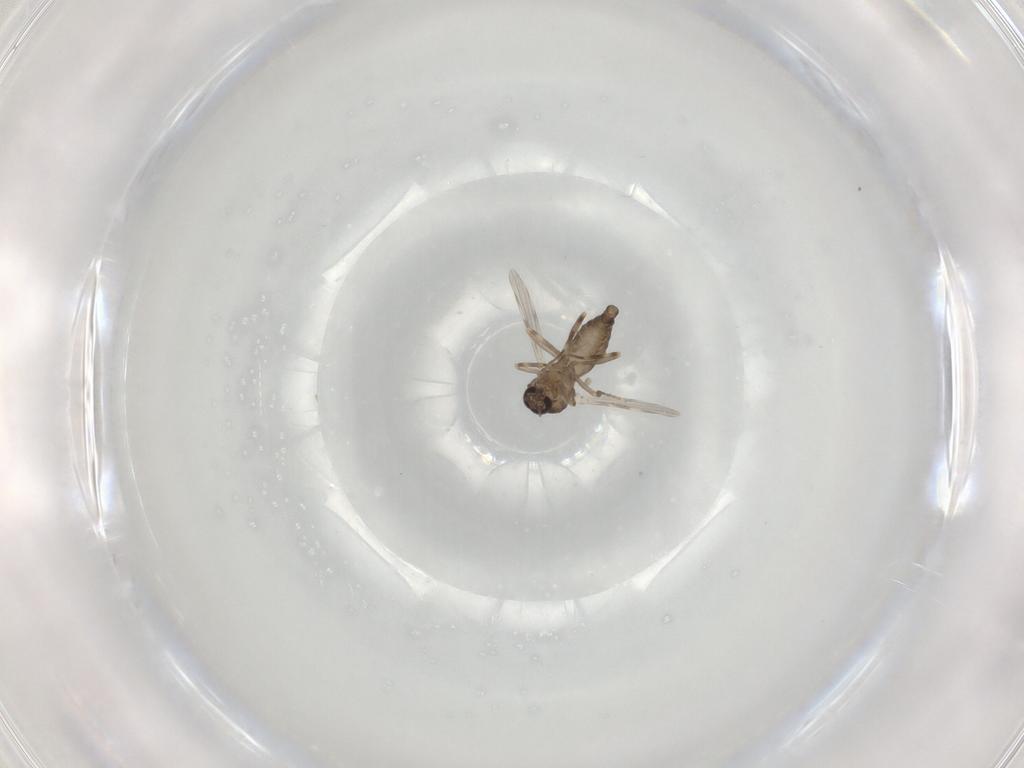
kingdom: Animalia
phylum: Arthropoda
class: Insecta
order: Diptera
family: Ceratopogonidae
